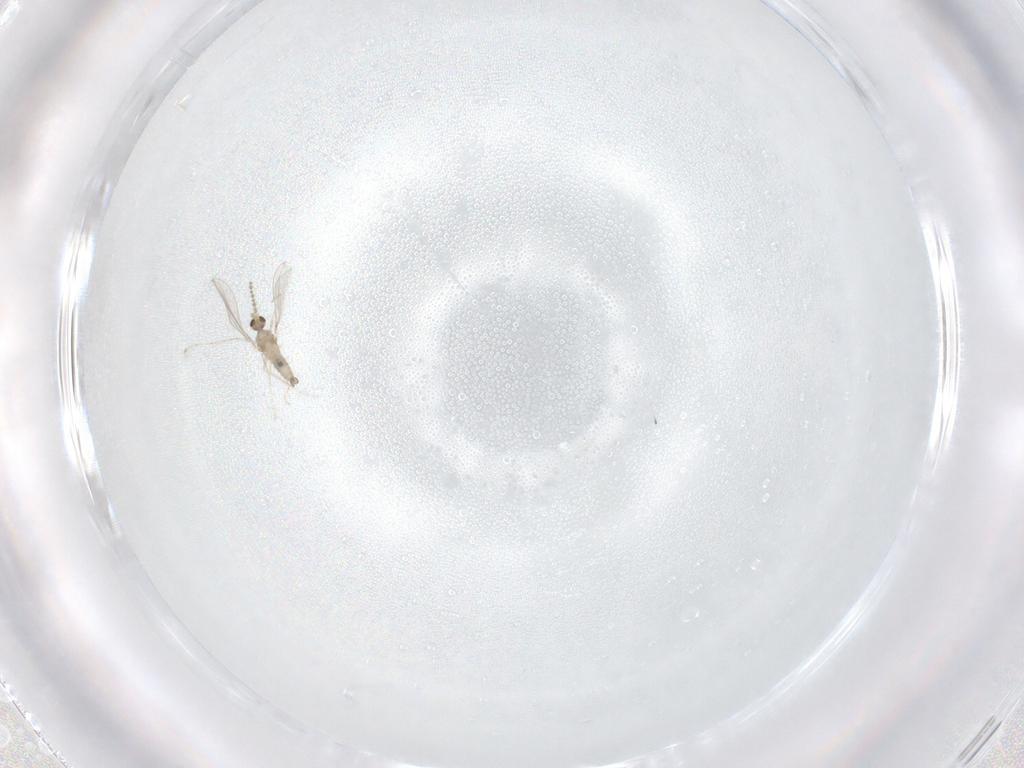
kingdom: Animalia
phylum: Arthropoda
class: Insecta
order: Diptera
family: Cecidomyiidae
